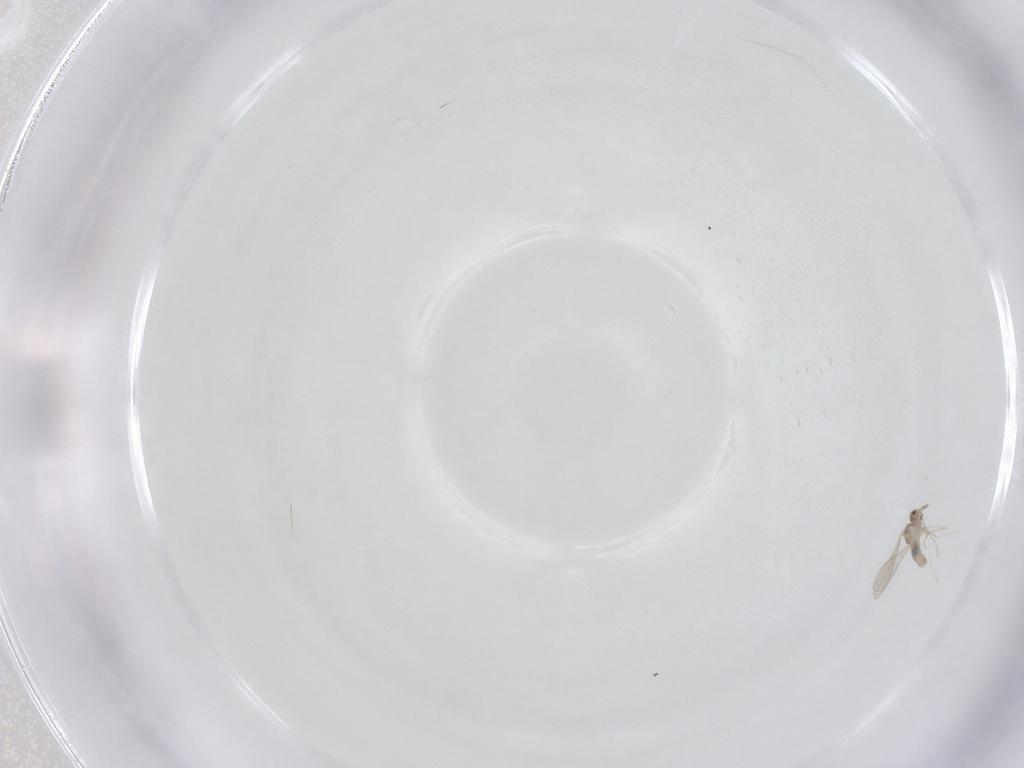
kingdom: Animalia
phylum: Arthropoda
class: Insecta
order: Diptera
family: Cecidomyiidae
